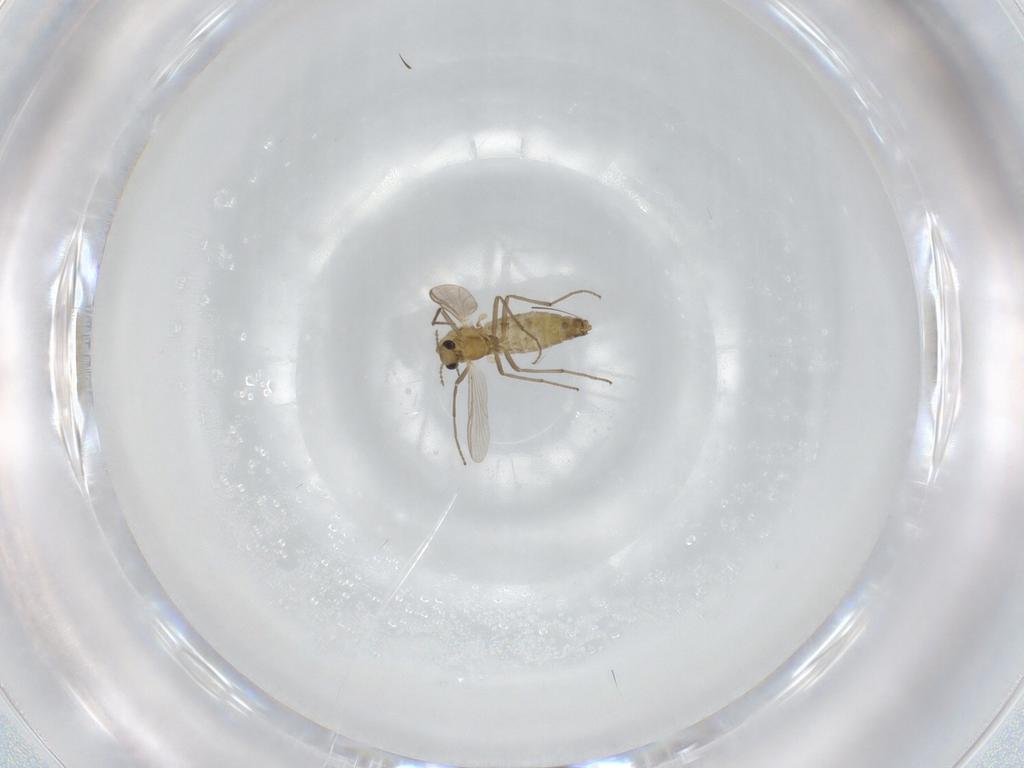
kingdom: Animalia
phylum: Arthropoda
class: Insecta
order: Diptera
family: Chironomidae
